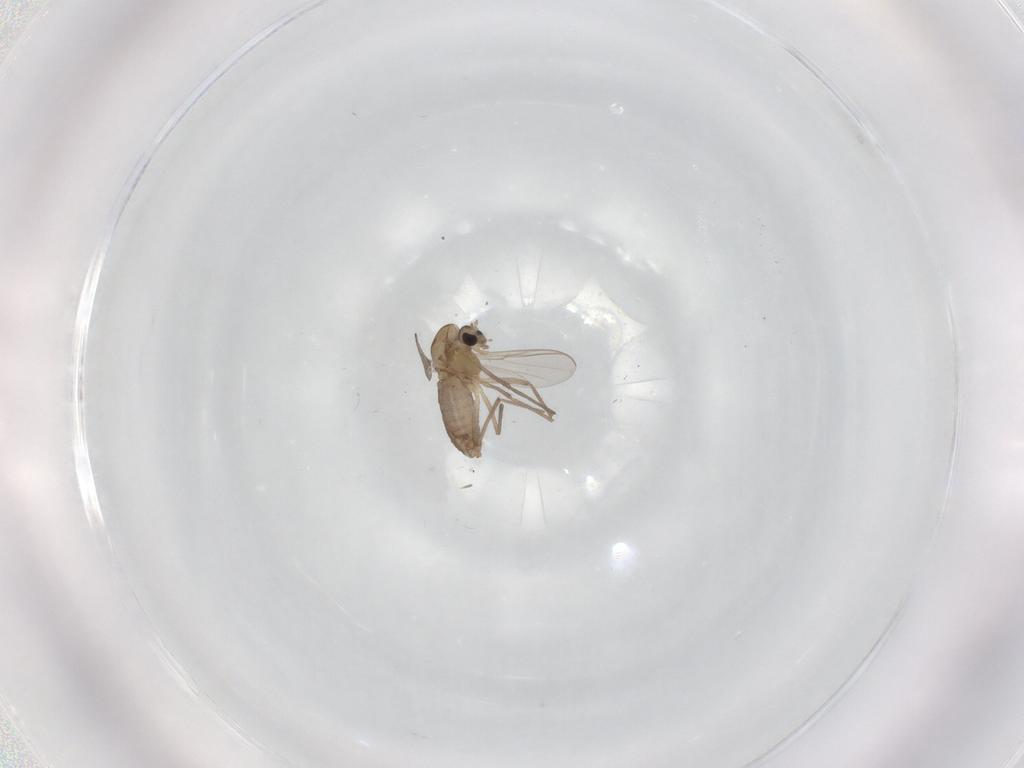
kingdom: Animalia
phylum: Arthropoda
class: Insecta
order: Diptera
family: Chironomidae
